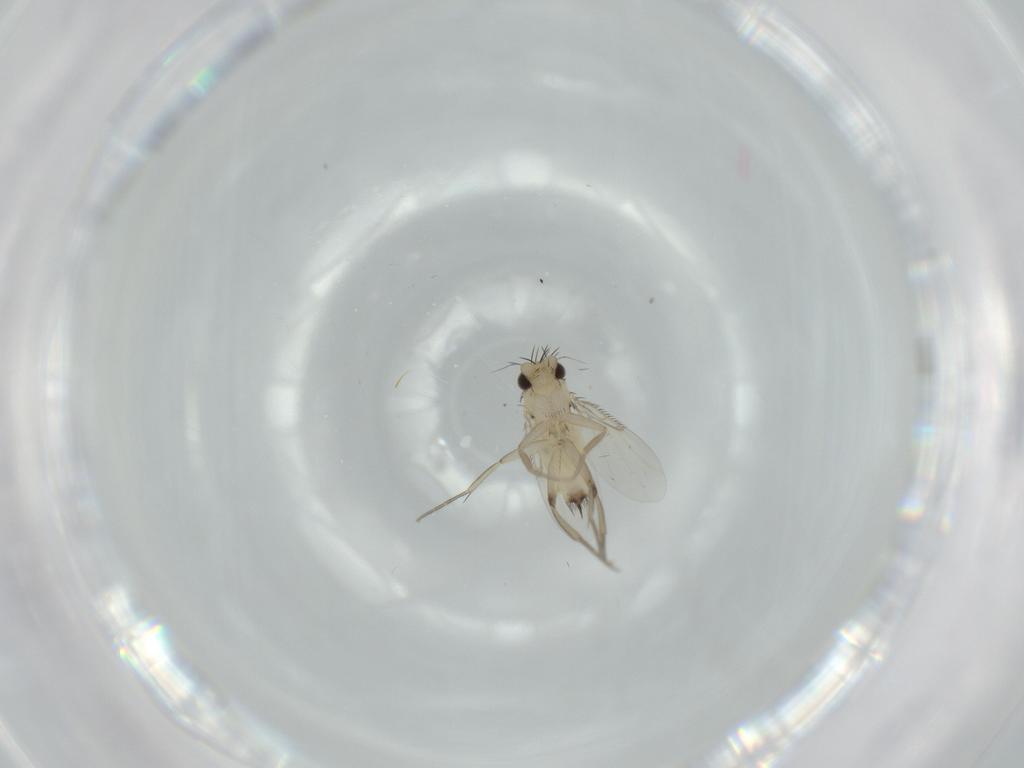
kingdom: Animalia
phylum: Arthropoda
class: Insecta
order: Diptera
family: Phoridae
